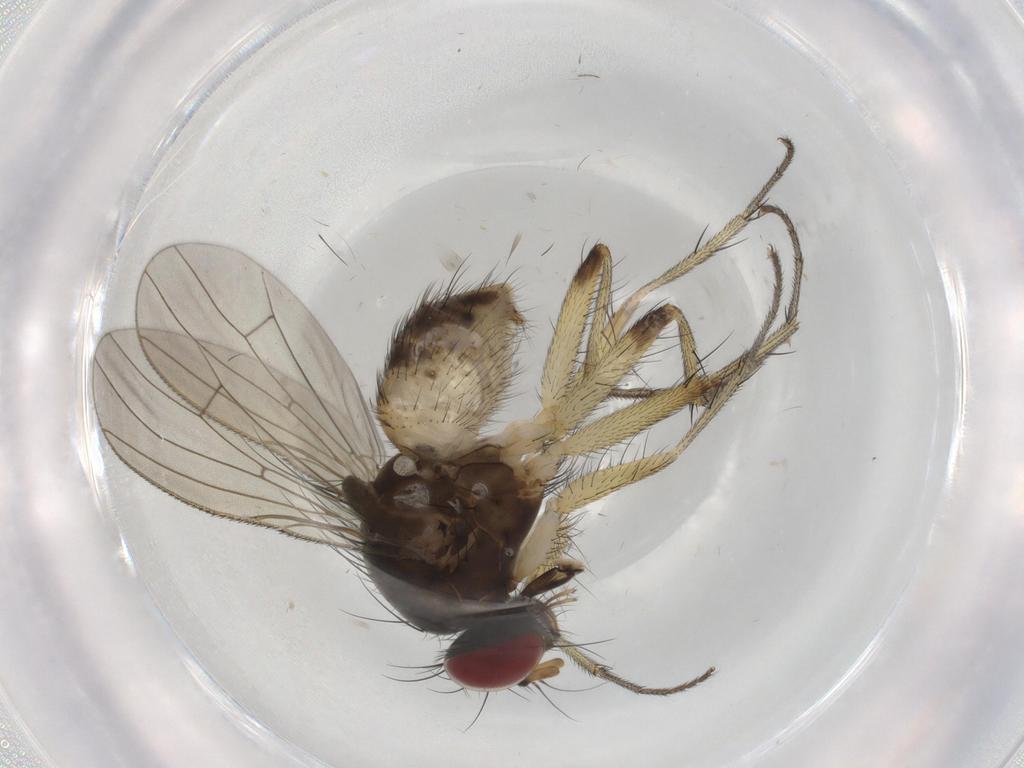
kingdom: Animalia
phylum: Arthropoda
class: Insecta
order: Diptera
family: Muscidae
